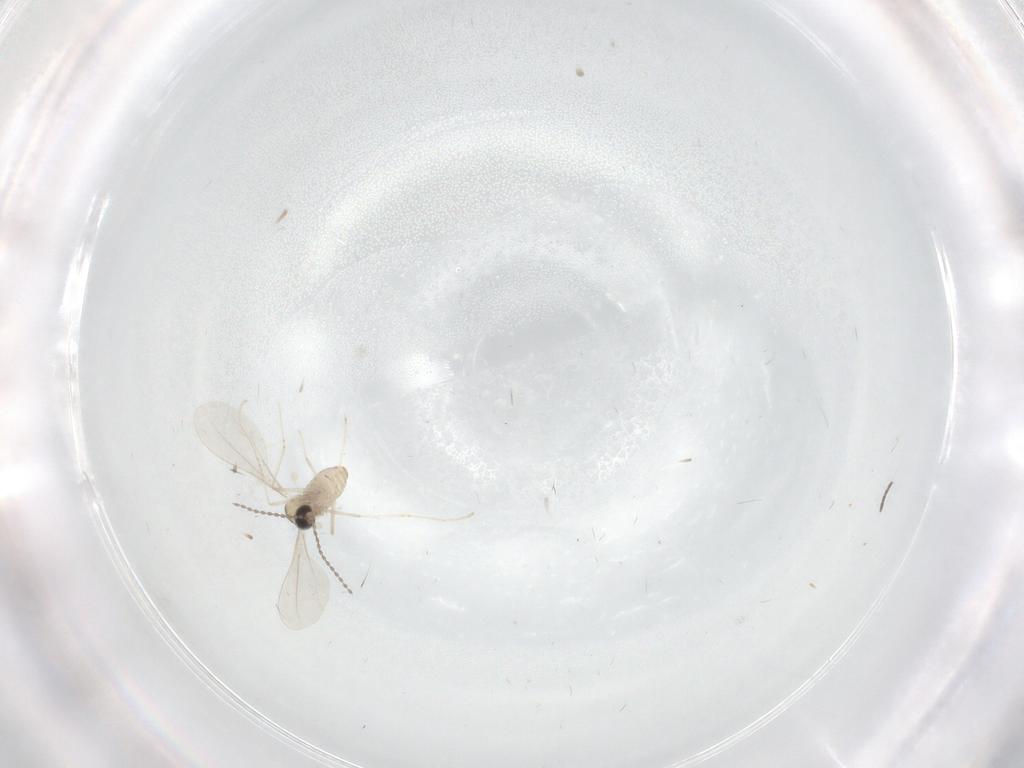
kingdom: Animalia
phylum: Arthropoda
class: Insecta
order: Diptera
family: Cecidomyiidae
